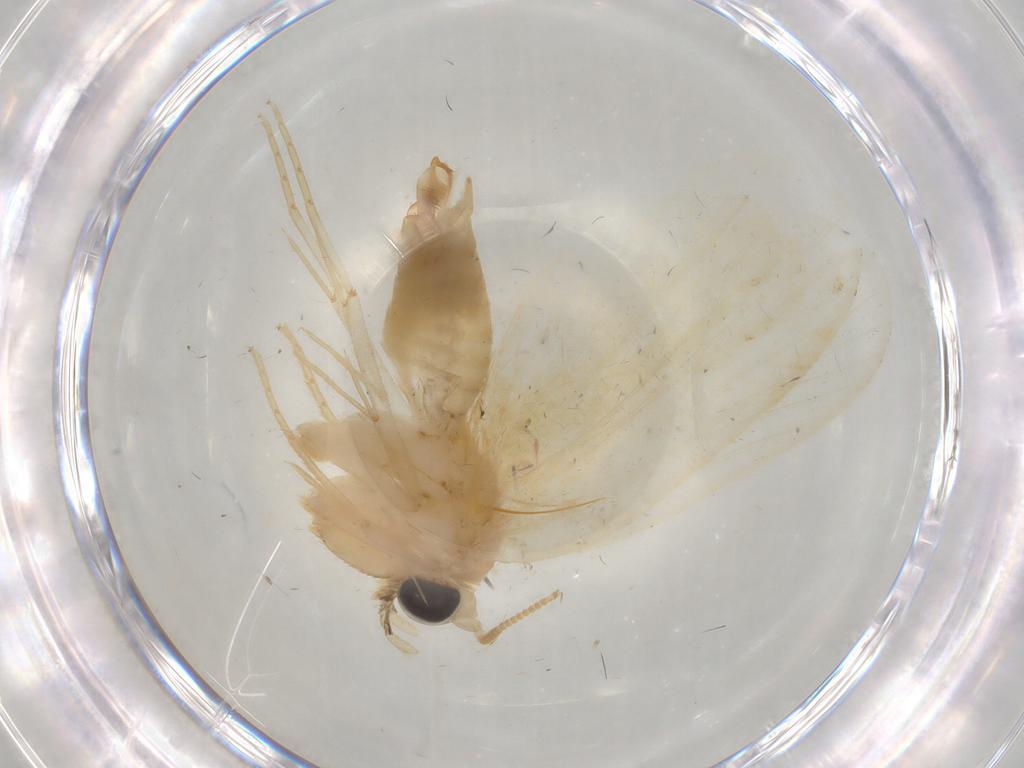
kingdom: Animalia
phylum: Arthropoda
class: Insecta
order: Lepidoptera
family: Psychidae
